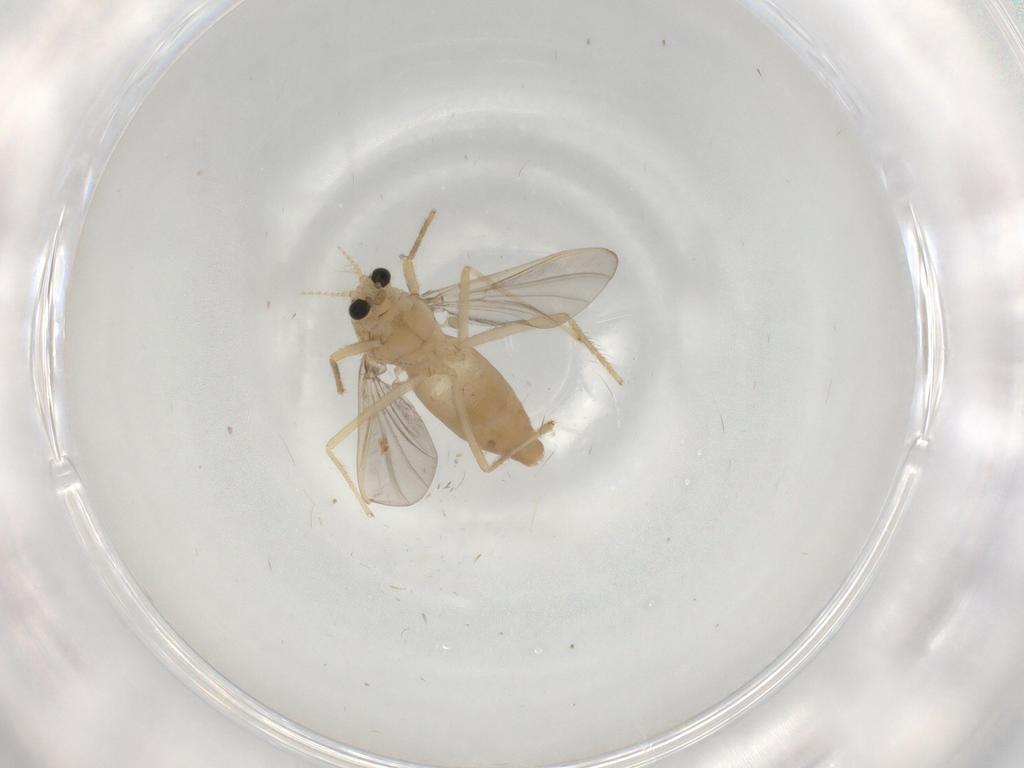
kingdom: Animalia
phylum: Arthropoda
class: Insecta
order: Diptera
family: Chironomidae
